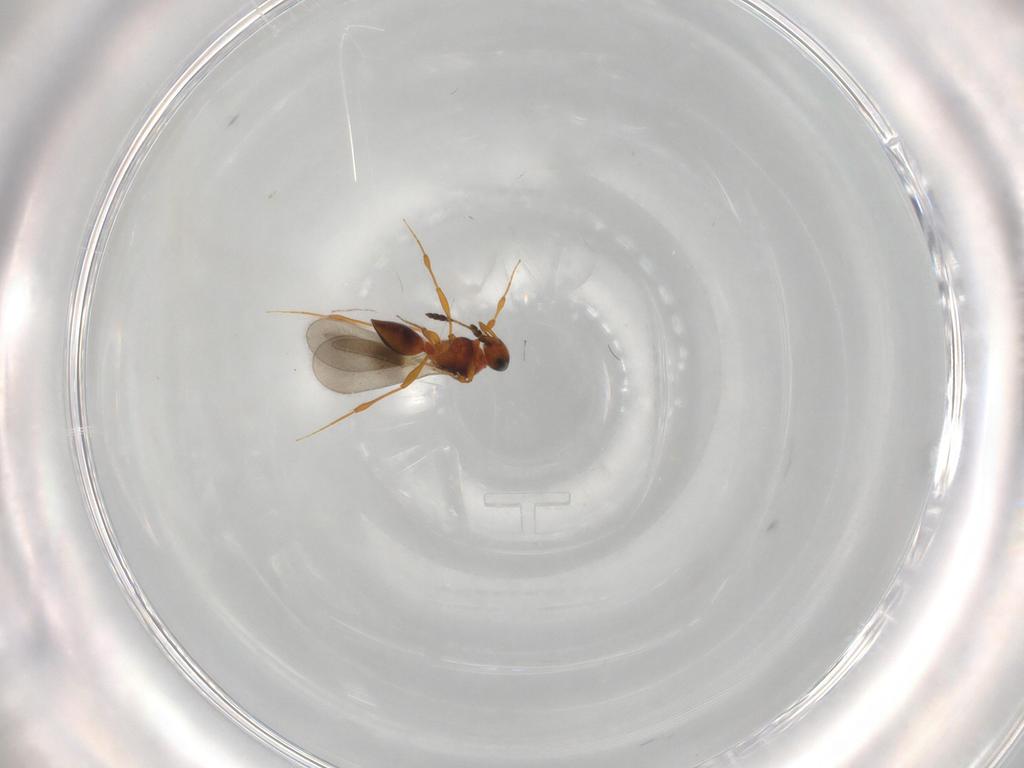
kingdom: Animalia
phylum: Arthropoda
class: Insecta
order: Hymenoptera
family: Platygastridae
